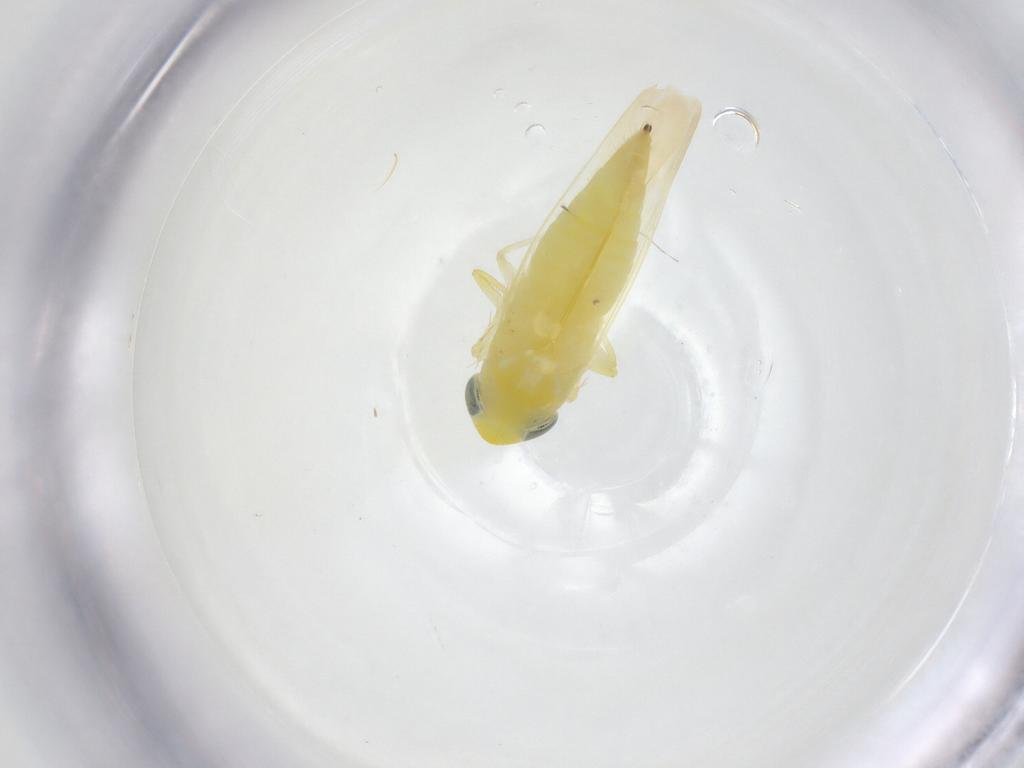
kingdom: Animalia
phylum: Arthropoda
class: Insecta
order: Hemiptera
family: Cicadellidae
